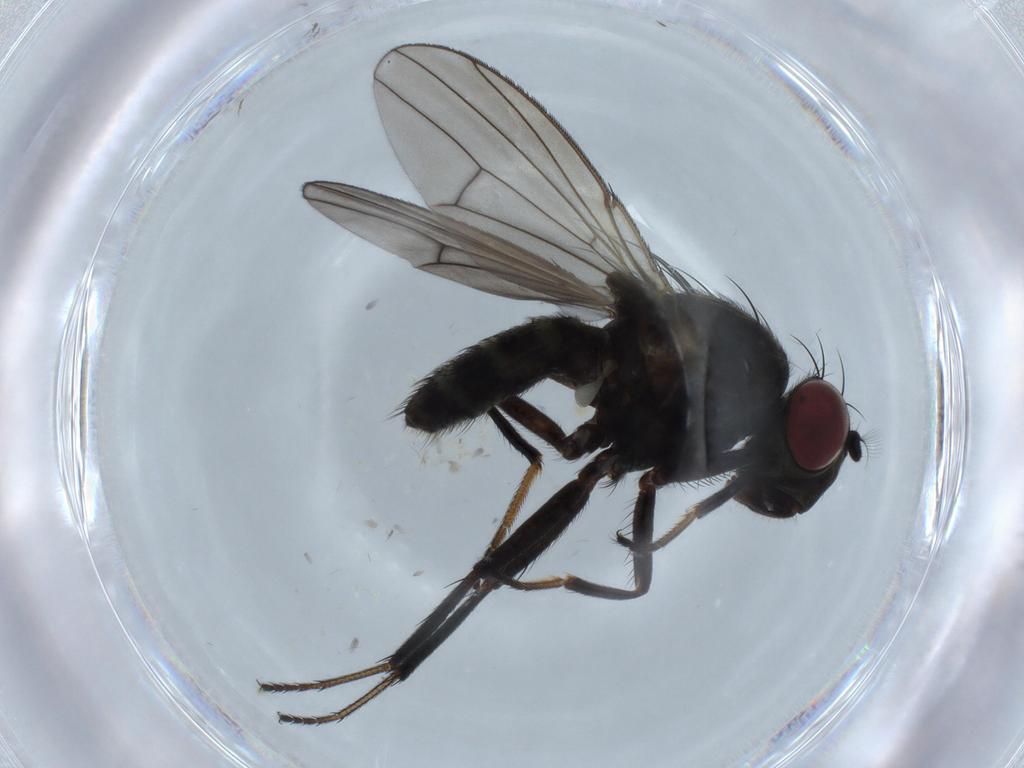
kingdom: Animalia
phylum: Arthropoda
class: Insecta
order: Diptera
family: Ephydridae
